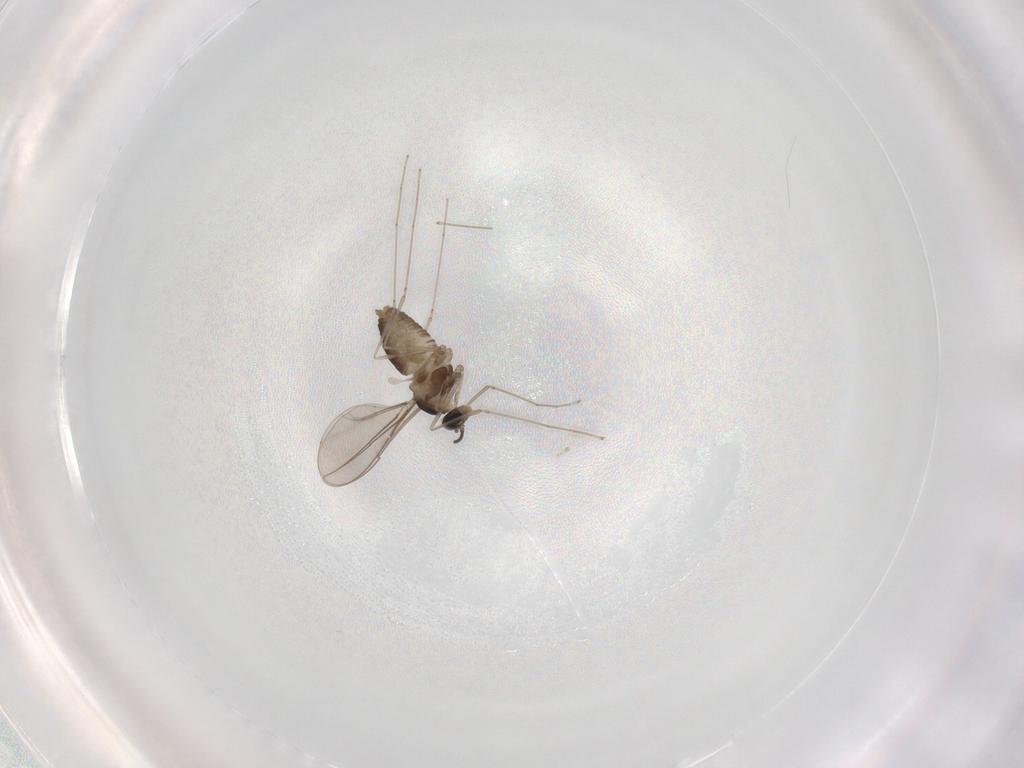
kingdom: Animalia
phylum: Arthropoda
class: Insecta
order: Diptera
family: Cecidomyiidae
